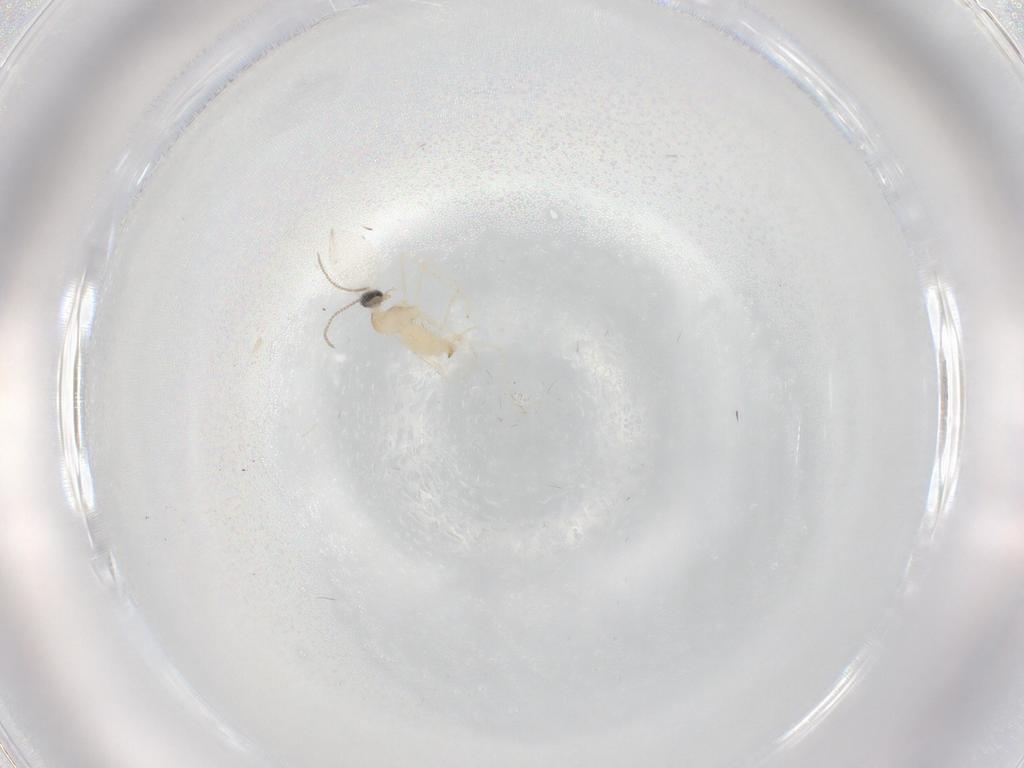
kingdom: Animalia
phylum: Arthropoda
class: Insecta
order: Diptera
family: Cecidomyiidae
